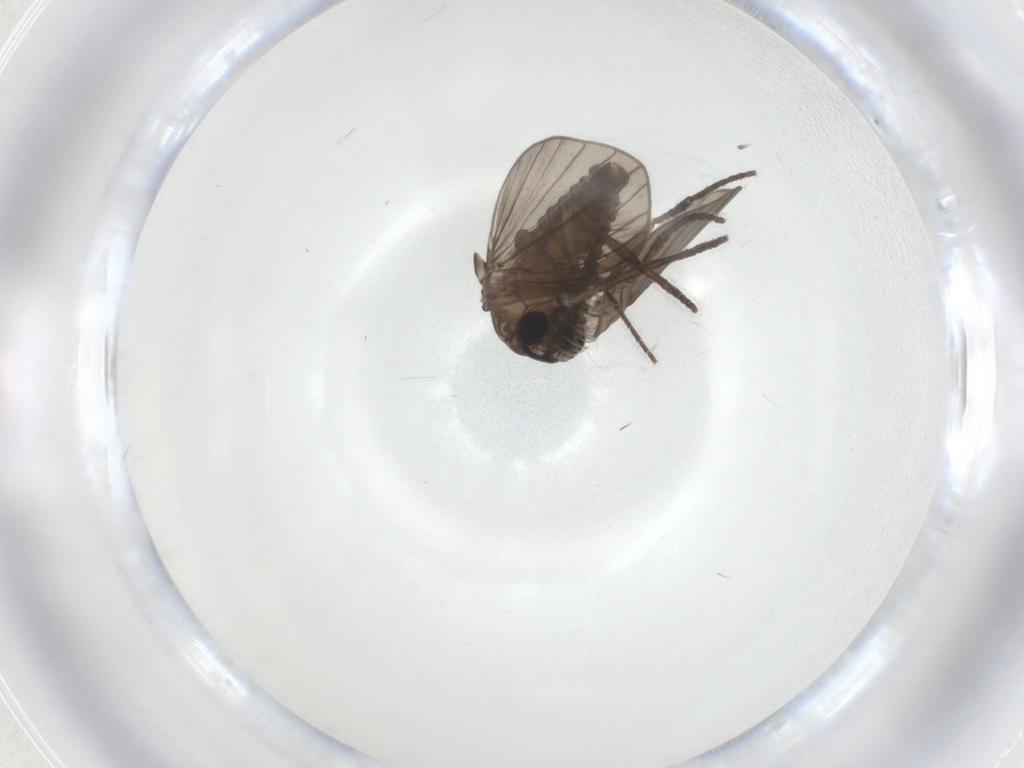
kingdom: Animalia
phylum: Arthropoda
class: Insecta
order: Diptera
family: Psychodidae
